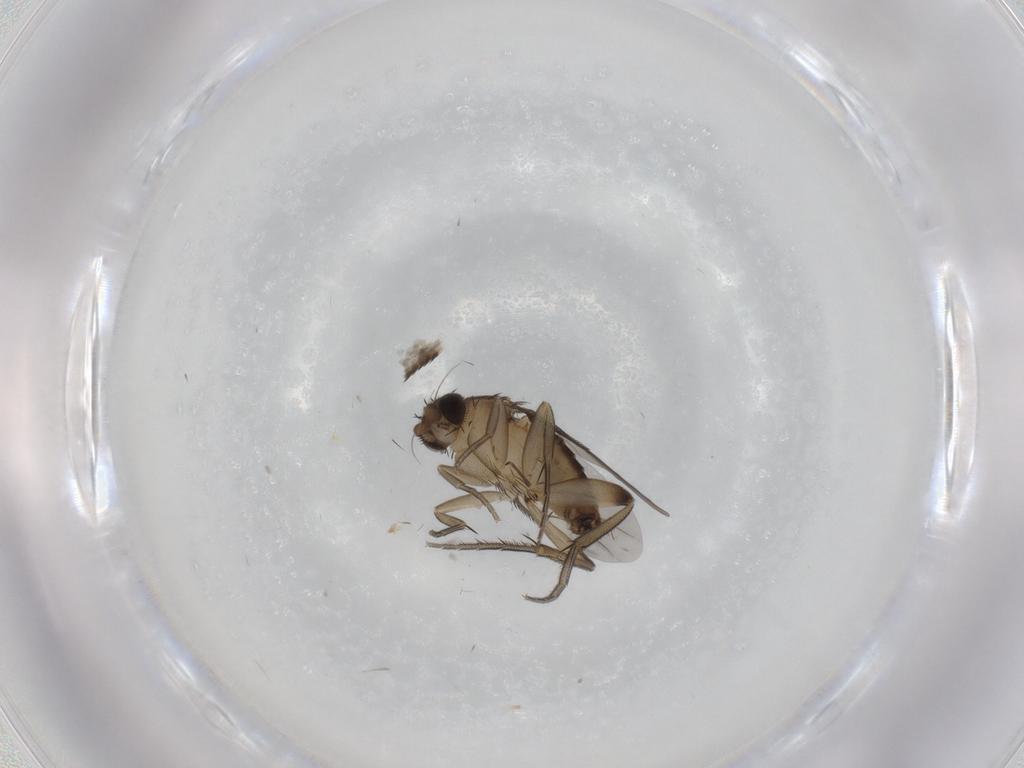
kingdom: Animalia
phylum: Arthropoda
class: Insecta
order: Diptera
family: Phoridae
